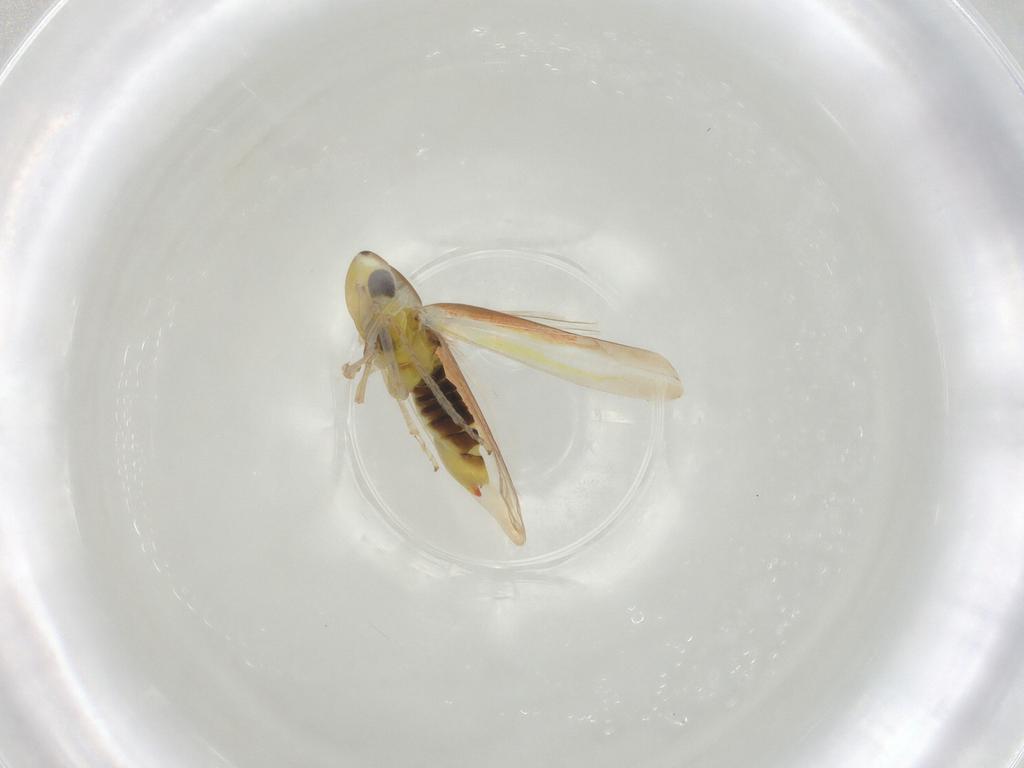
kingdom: Animalia
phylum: Arthropoda
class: Insecta
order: Hemiptera
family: Cicadellidae
